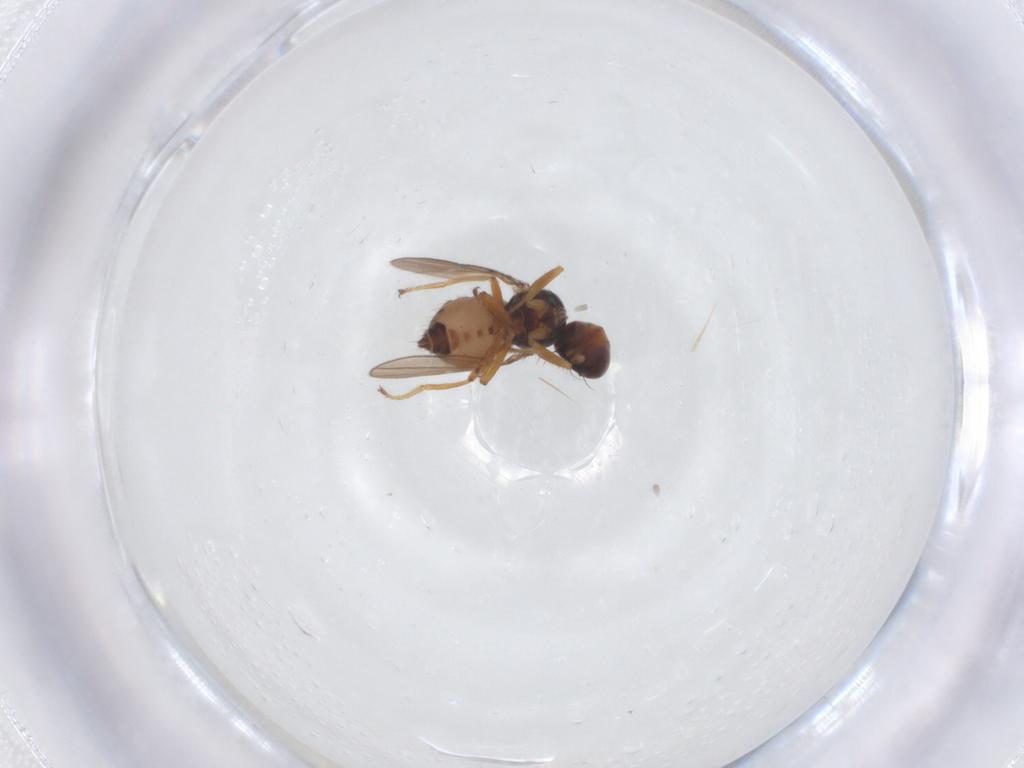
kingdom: Animalia
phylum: Arthropoda
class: Insecta
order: Diptera
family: Ephydridae
